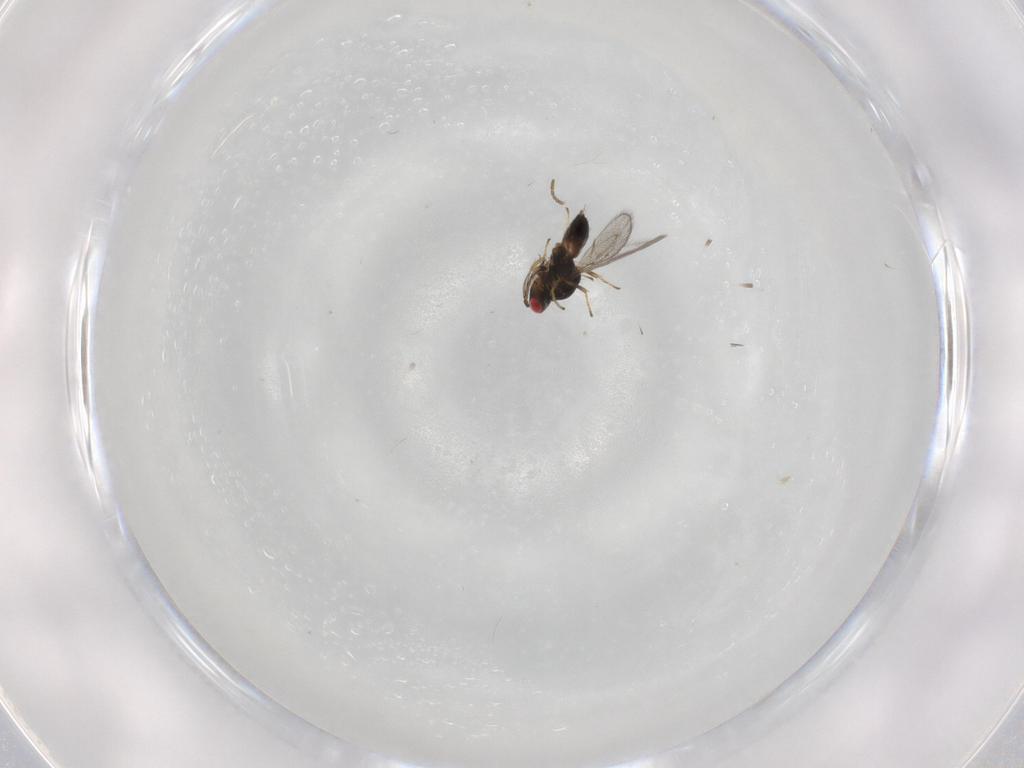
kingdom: Animalia
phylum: Arthropoda
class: Insecta
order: Hymenoptera
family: Eulophidae
